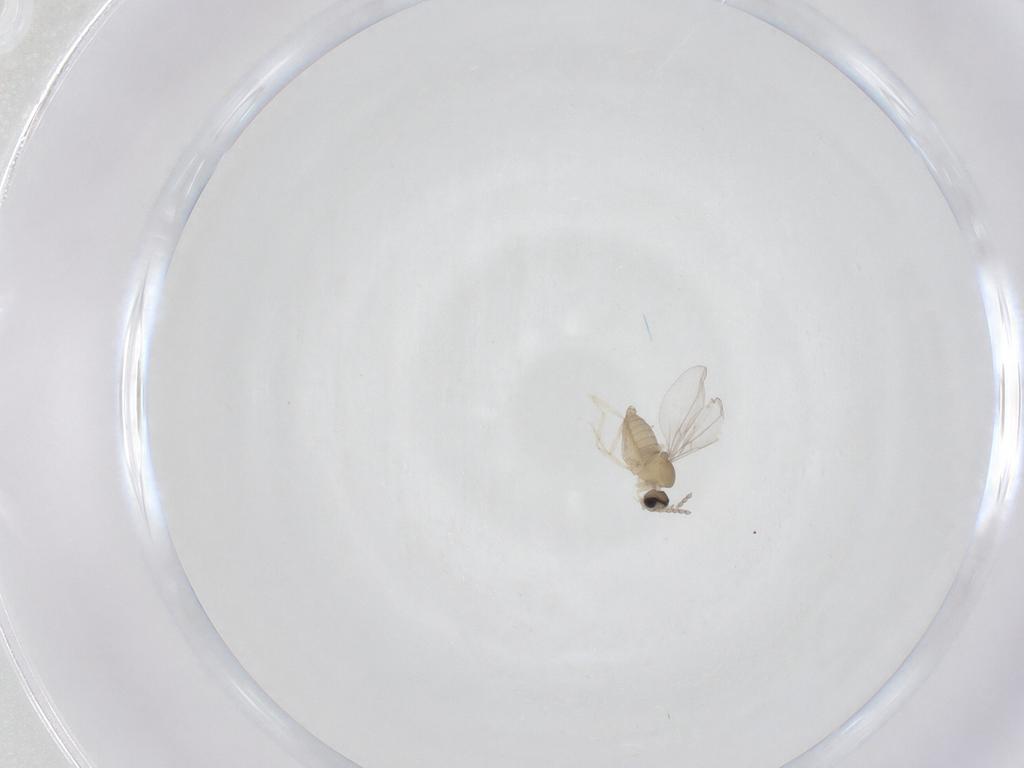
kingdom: Animalia
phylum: Arthropoda
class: Insecta
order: Diptera
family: Cecidomyiidae
